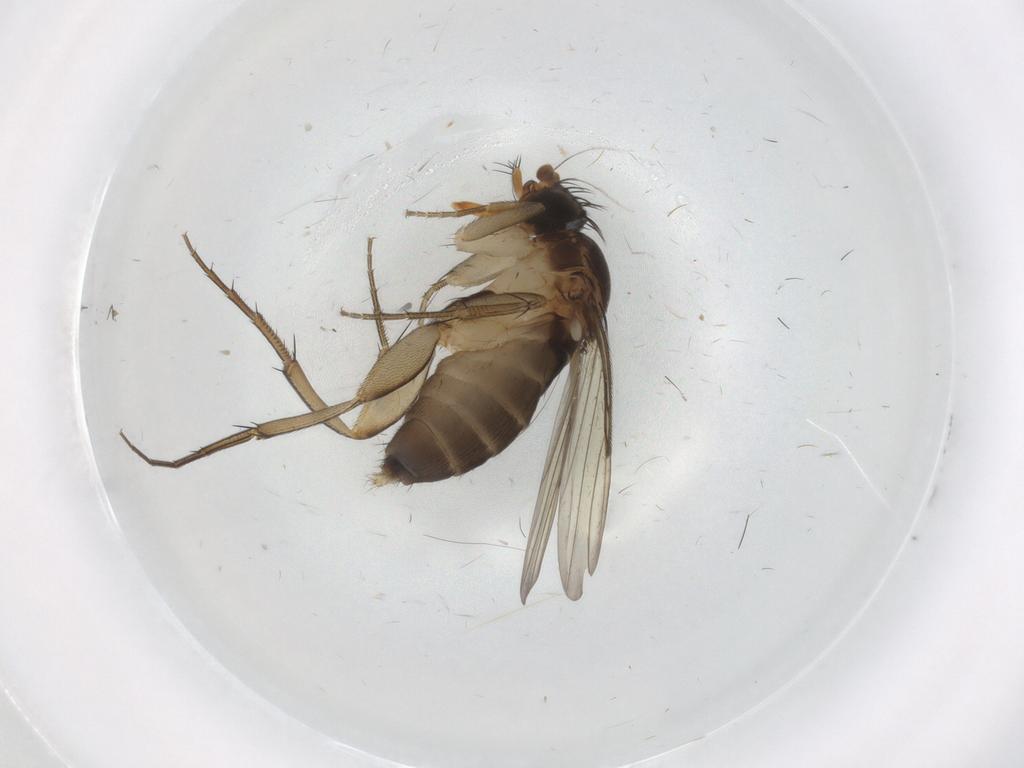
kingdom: Animalia
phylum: Arthropoda
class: Insecta
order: Diptera
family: Phoridae
